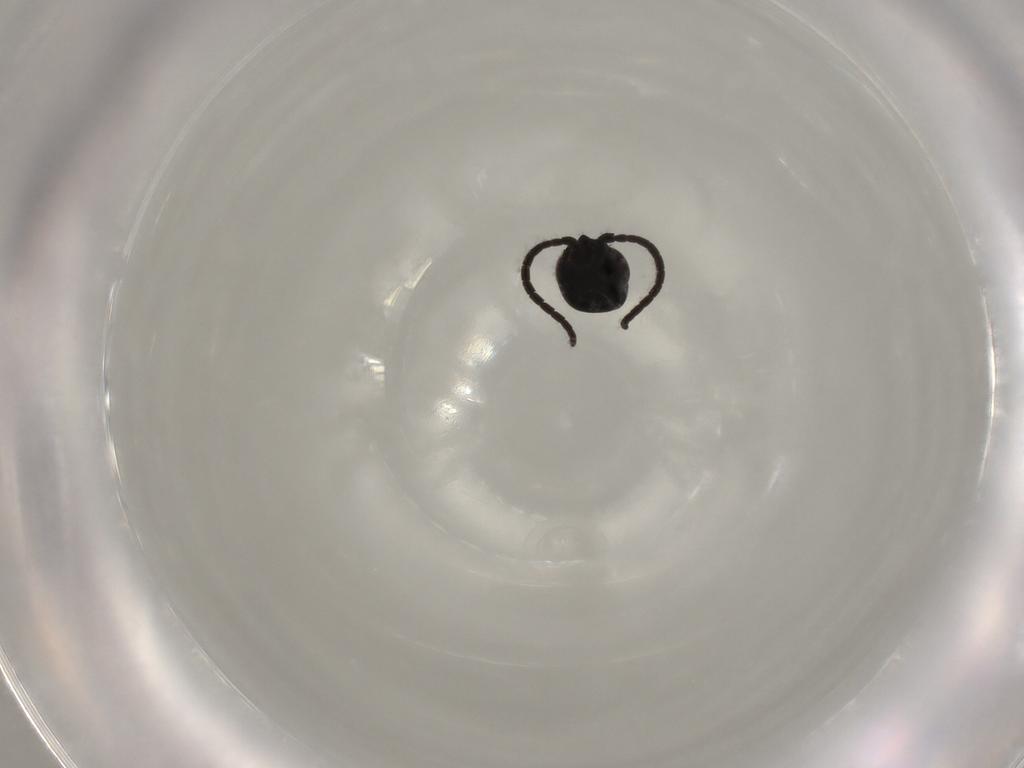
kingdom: Animalia
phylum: Arthropoda
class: Insecta
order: Hymenoptera
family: Bethylidae
